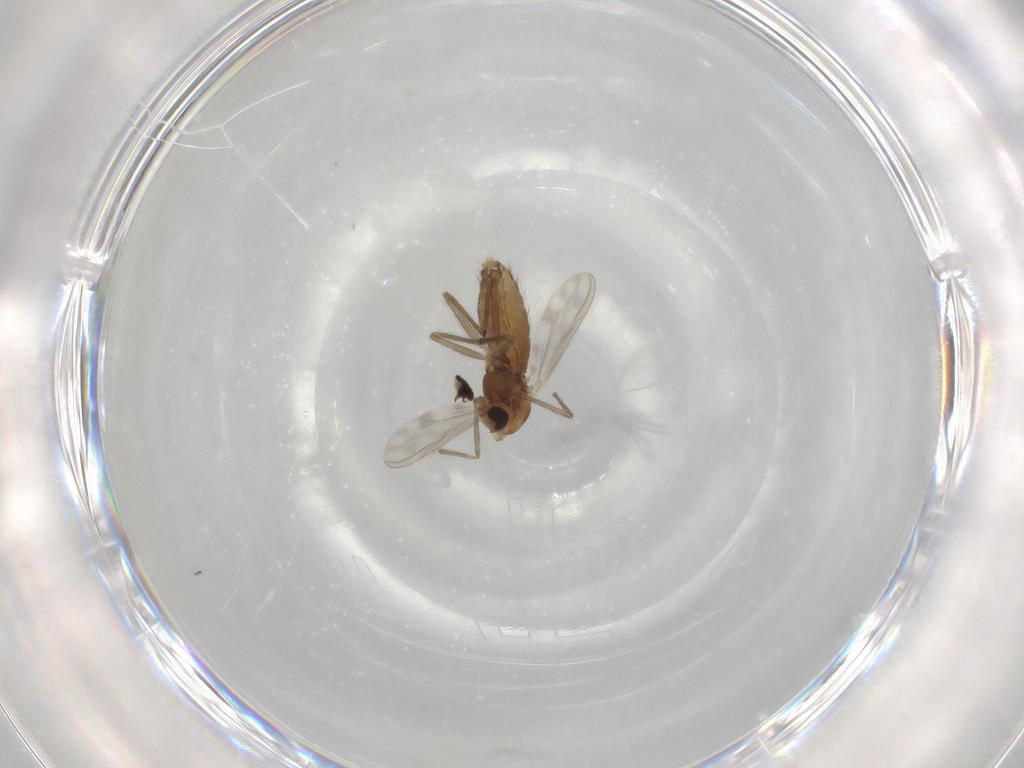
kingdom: Animalia
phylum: Arthropoda
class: Insecta
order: Diptera
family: Chironomidae
